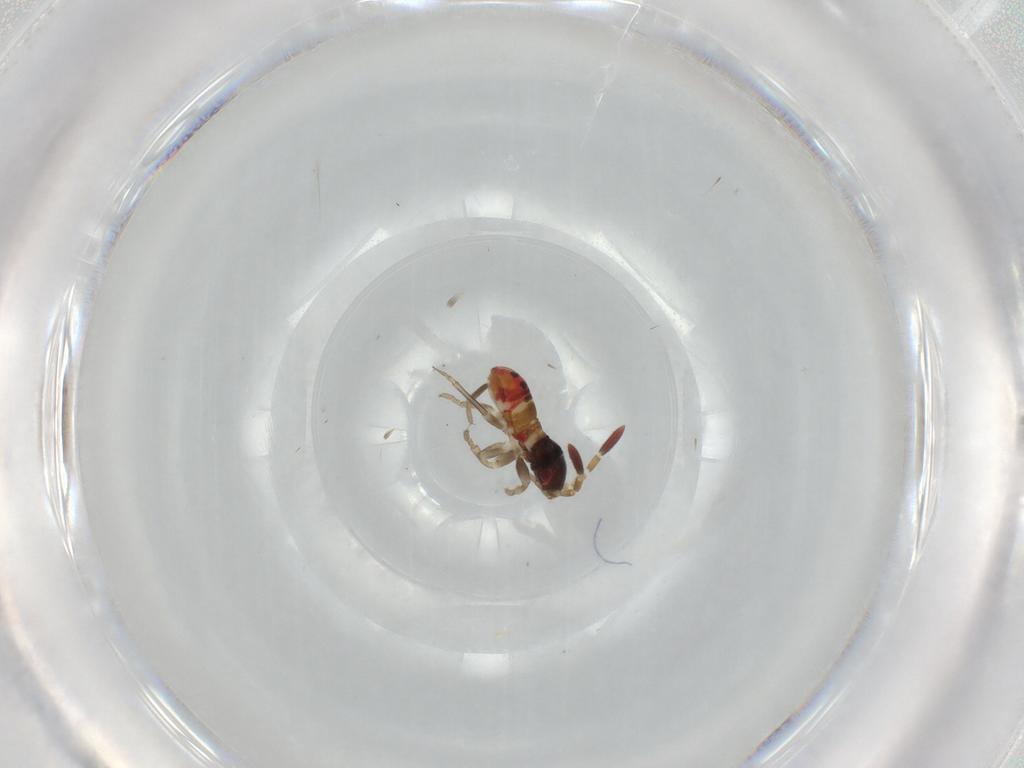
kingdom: Animalia
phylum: Arthropoda
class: Insecta
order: Hemiptera
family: Rhyparochromidae
